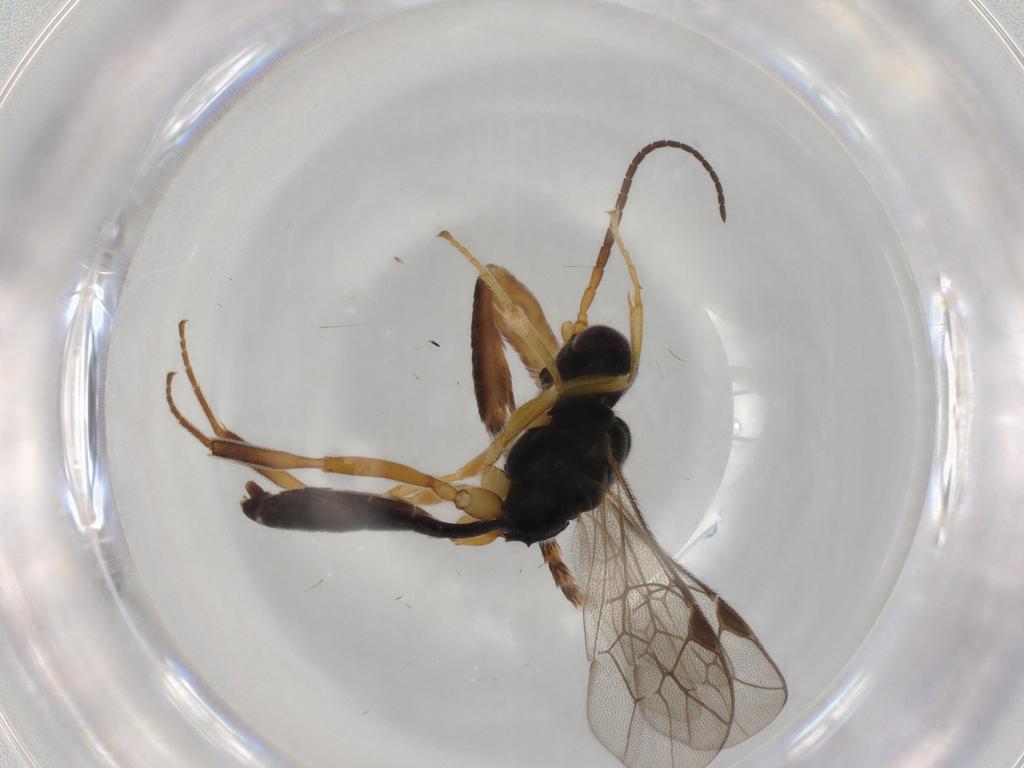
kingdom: Animalia
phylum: Arthropoda
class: Insecta
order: Hymenoptera
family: Ichneumonidae
